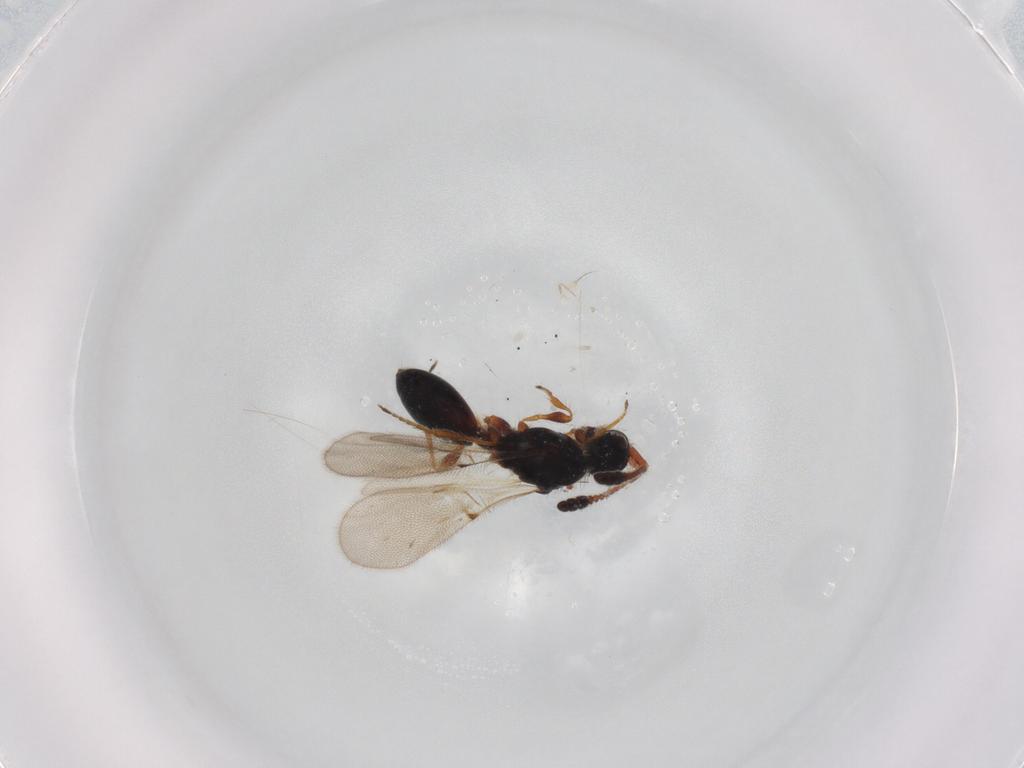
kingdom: Animalia
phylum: Arthropoda
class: Insecta
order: Hymenoptera
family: Diapriidae
